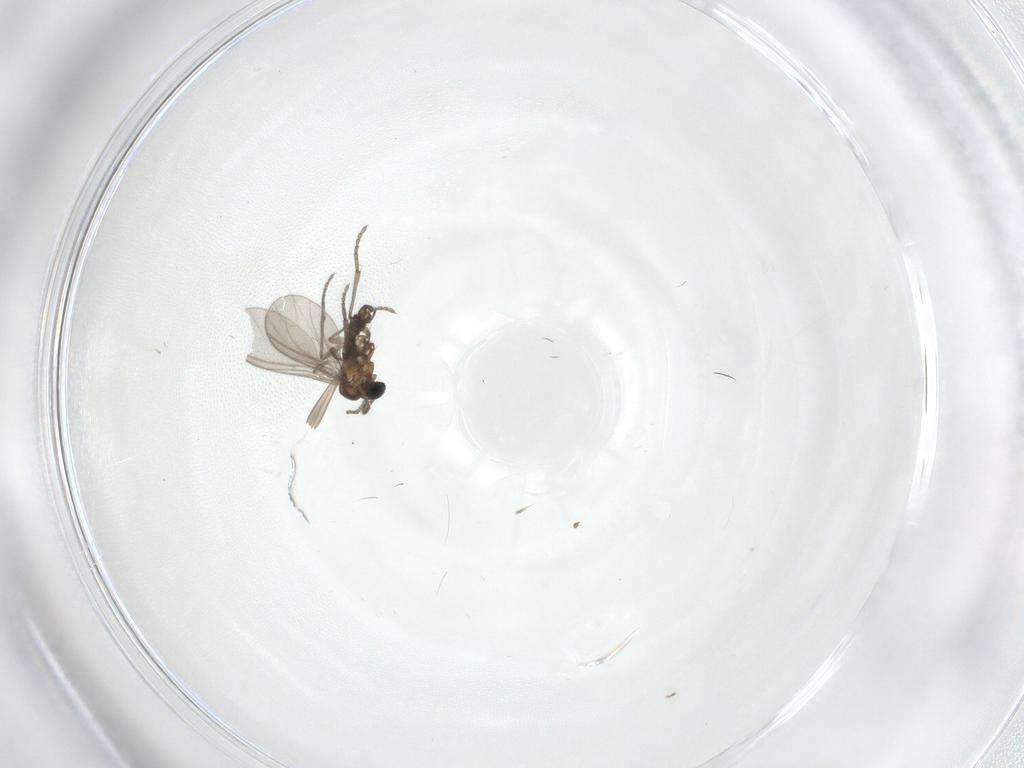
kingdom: Animalia
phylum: Arthropoda
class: Insecta
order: Diptera
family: Sciaridae
